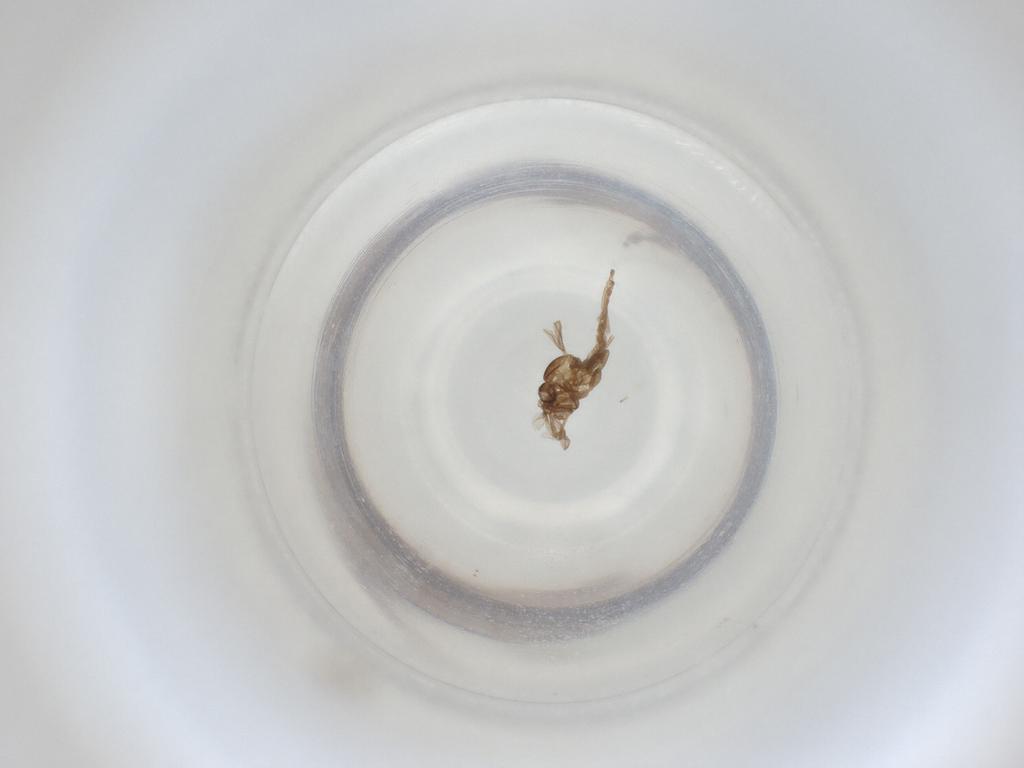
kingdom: Animalia
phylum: Arthropoda
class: Insecta
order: Diptera
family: Cecidomyiidae
